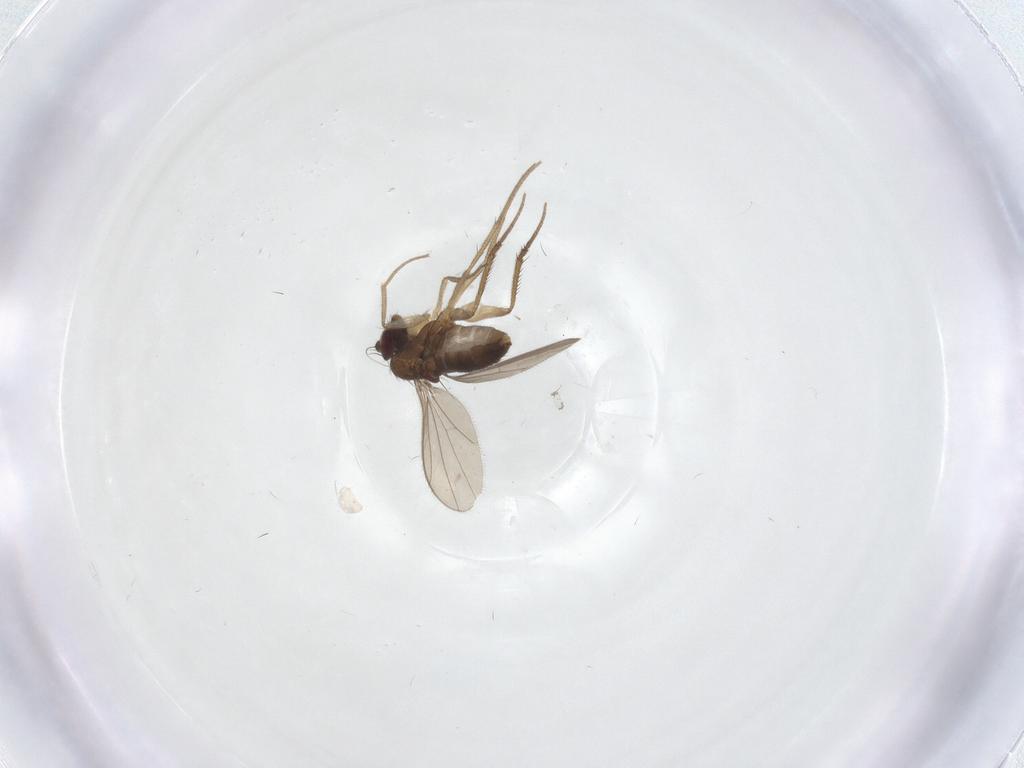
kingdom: Animalia
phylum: Arthropoda
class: Insecta
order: Diptera
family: Dolichopodidae
